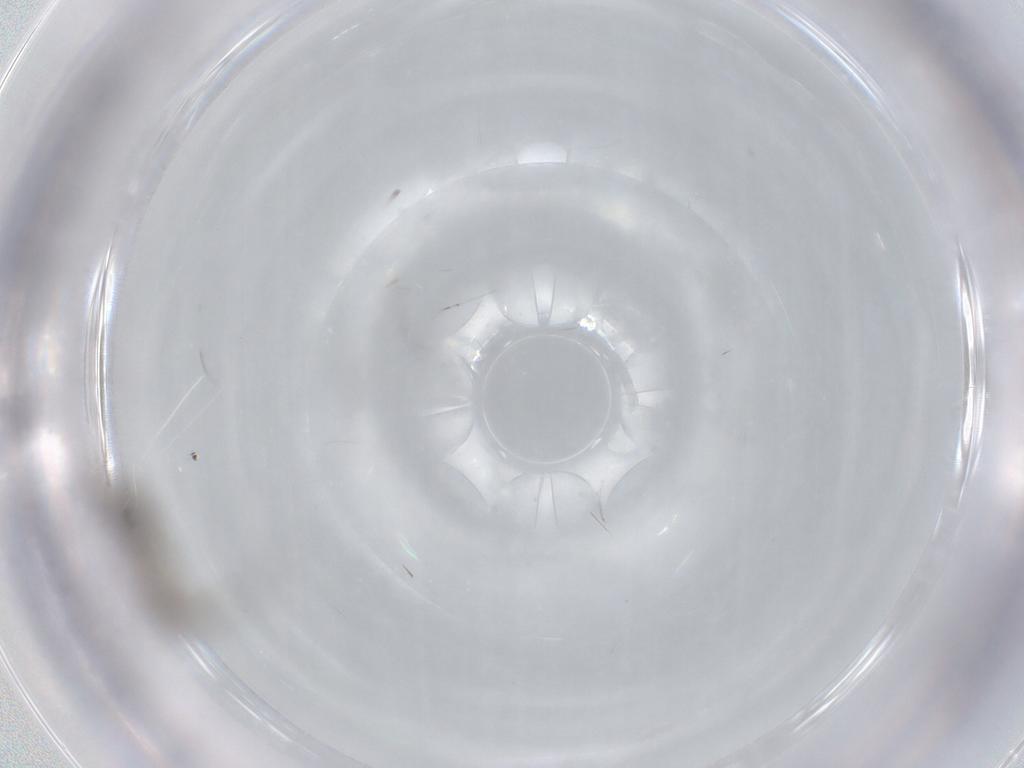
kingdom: Animalia
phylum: Arthropoda
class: Insecta
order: Diptera
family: Sciaridae
